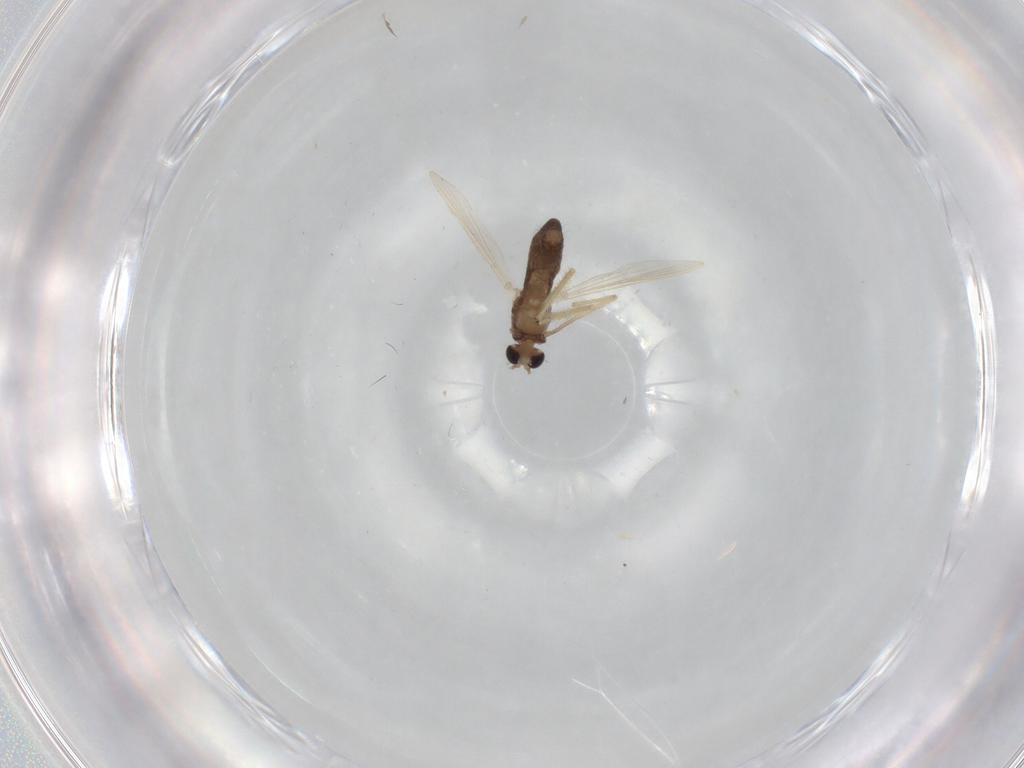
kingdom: Animalia
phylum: Arthropoda
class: Insecta
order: Diptera
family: Chironomidae
